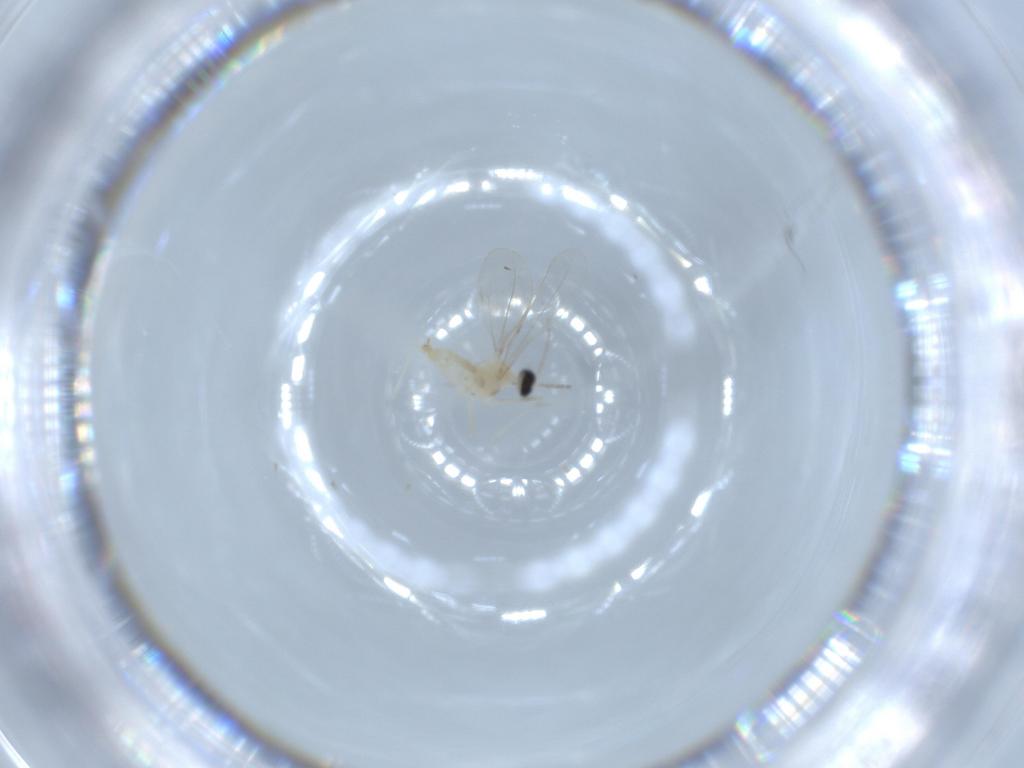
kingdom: Animalia
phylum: Arthropoda
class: Insecta
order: Diptera
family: Cecidomyiidae
